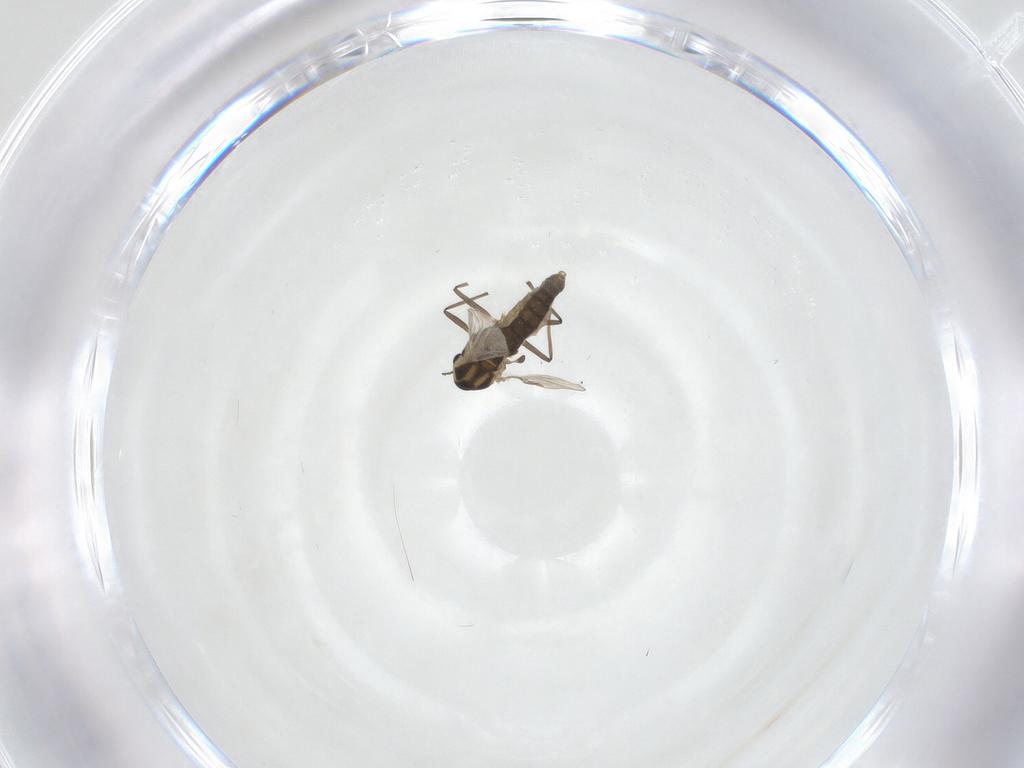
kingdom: Animalia
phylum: Arthropoda
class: Insecta
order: Diptera
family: Chironomidae
